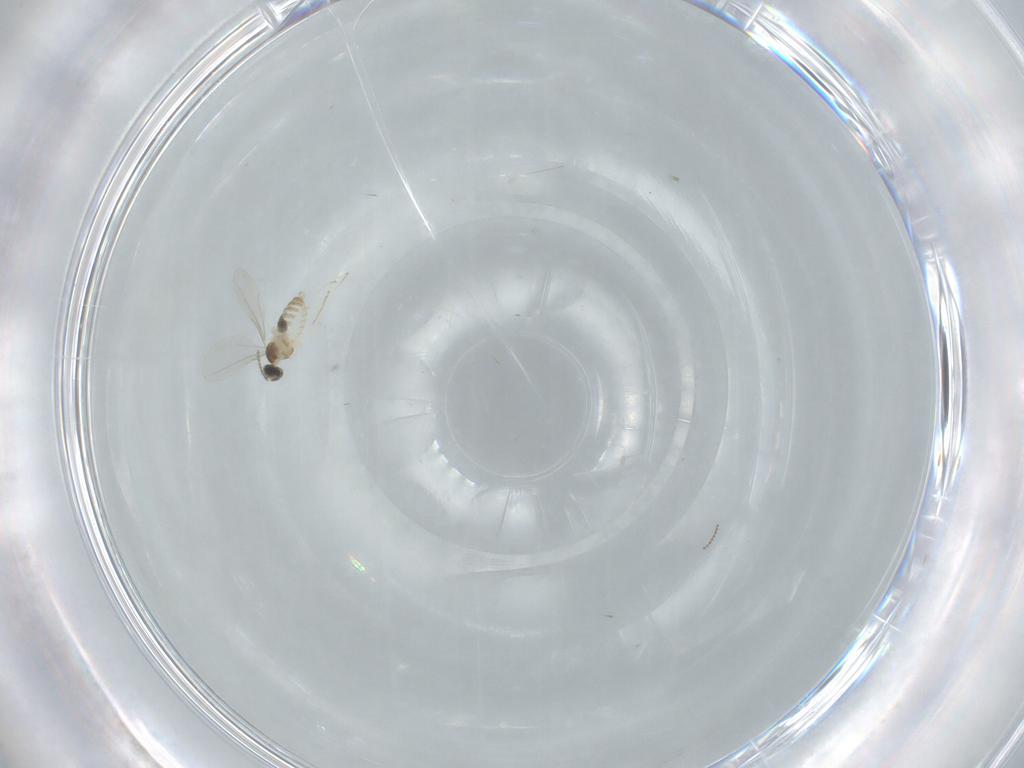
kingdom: Animalia
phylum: Arthropoda
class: Insecta
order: Diptera
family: Cecidomyiidae
